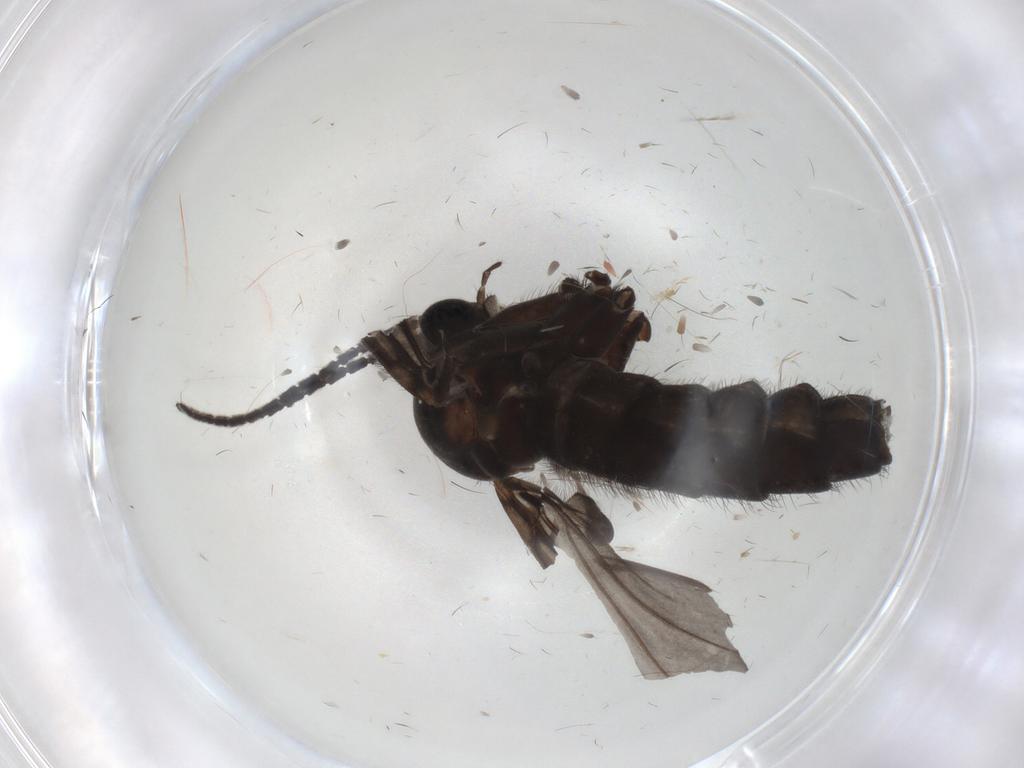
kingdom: Animalia
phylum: Arthropoda
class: Insecta
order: Diptera
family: Sciaridae
